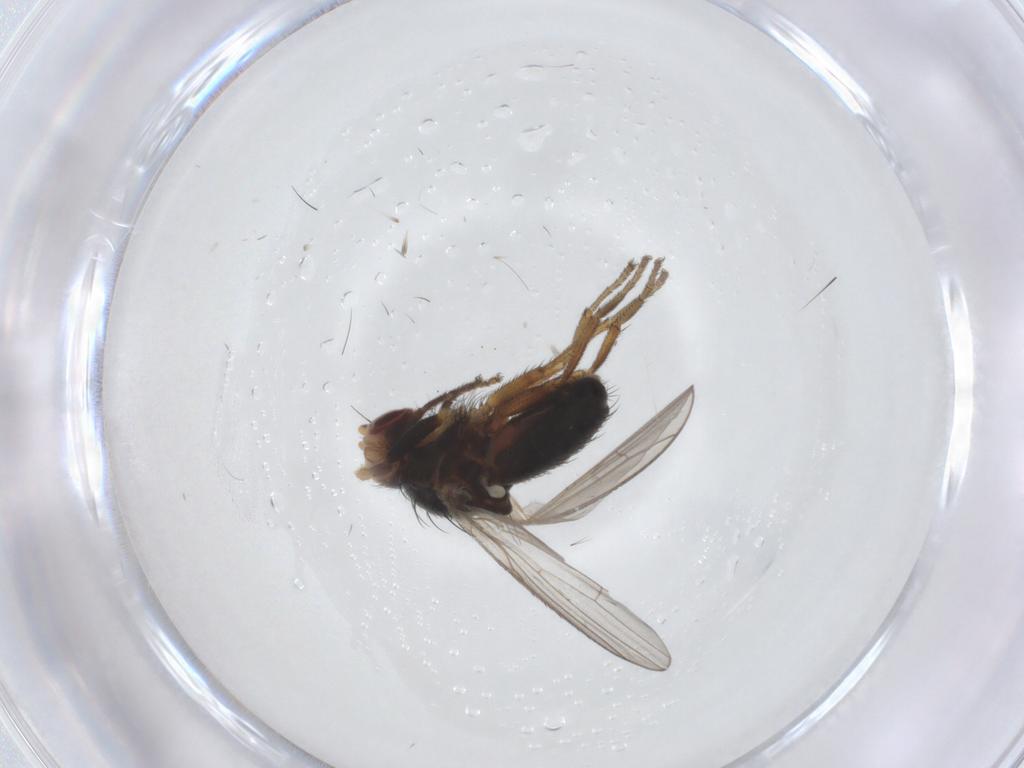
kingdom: Animalia
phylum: Arthropoda
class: Insecta
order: Diptera
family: Heleomyzidae
